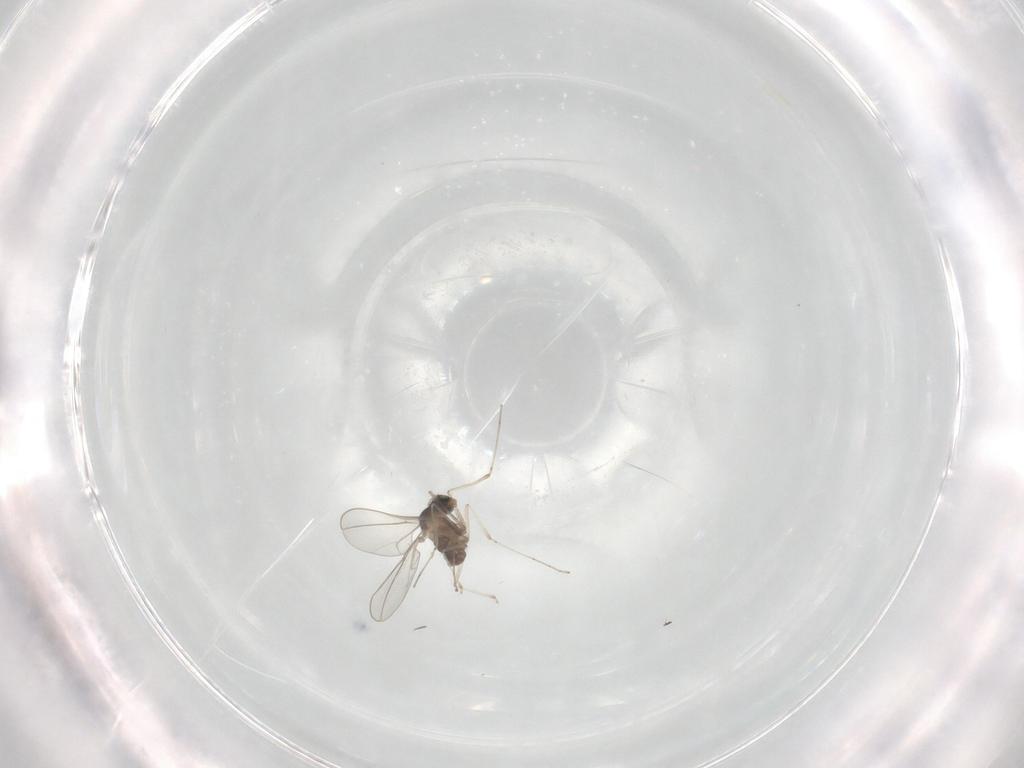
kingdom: Animalia
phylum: Arthropoda
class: Insecta
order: Diptera
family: Cecidomyiidae
